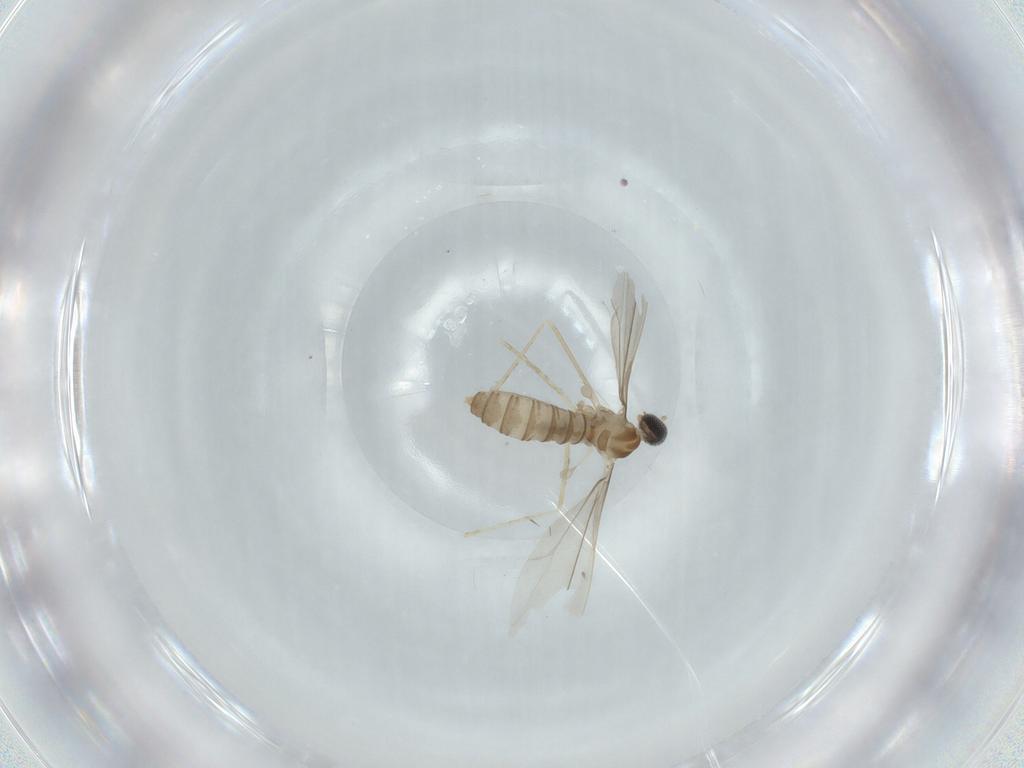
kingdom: Animalia
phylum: Arthropoda
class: Insecta
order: Diptera
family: Cecidomyiidae
